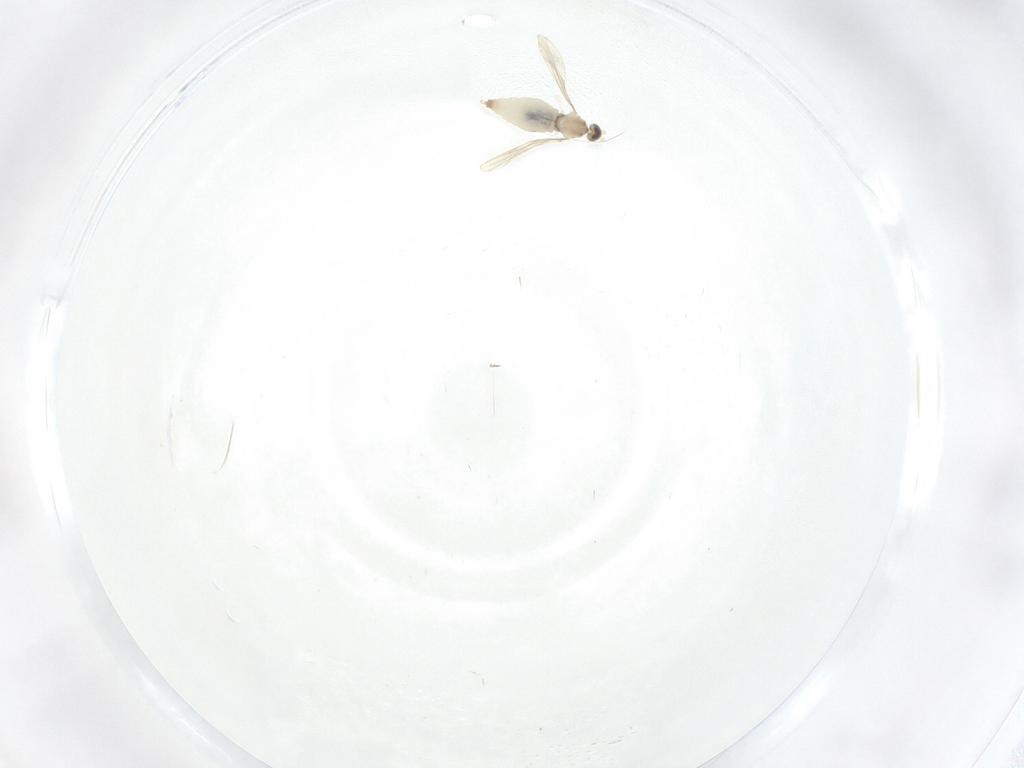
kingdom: Animalia
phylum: Arthropoda
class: Insecta
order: Diptera
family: Cecidomyiidae
